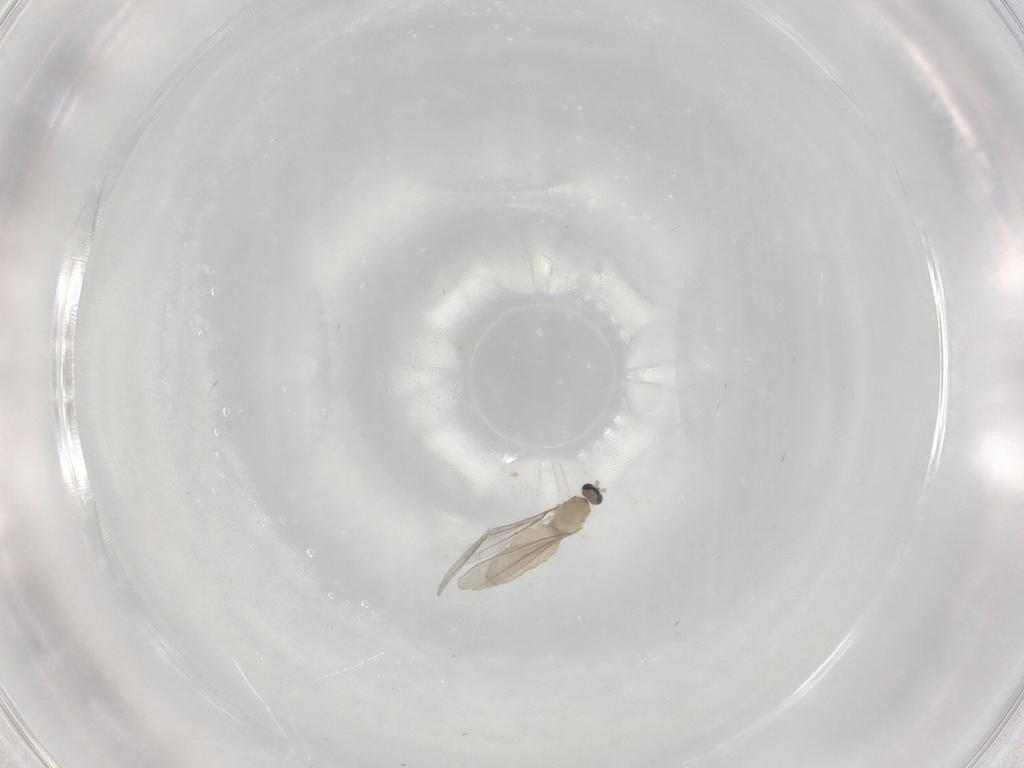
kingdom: Animalia
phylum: Arthropoda
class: Insecta
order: Diptera
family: Cecidomyiidae
